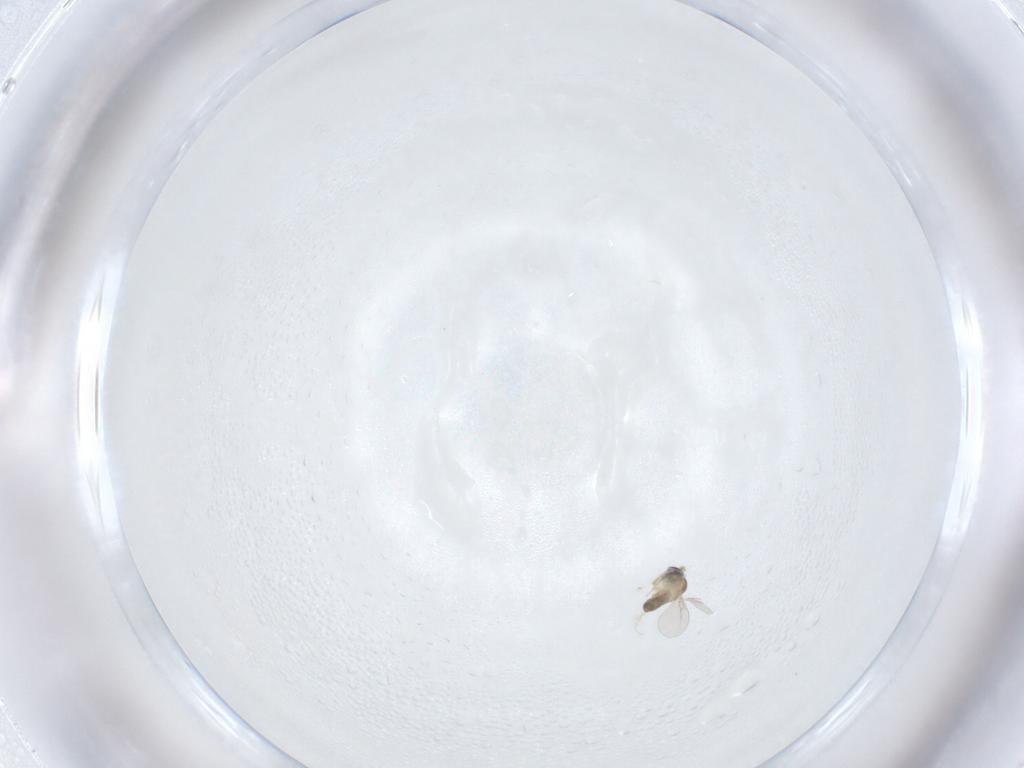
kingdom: Animalia
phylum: Arthropoda
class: Insecta
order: Diptera
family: Cecidomyiidae
